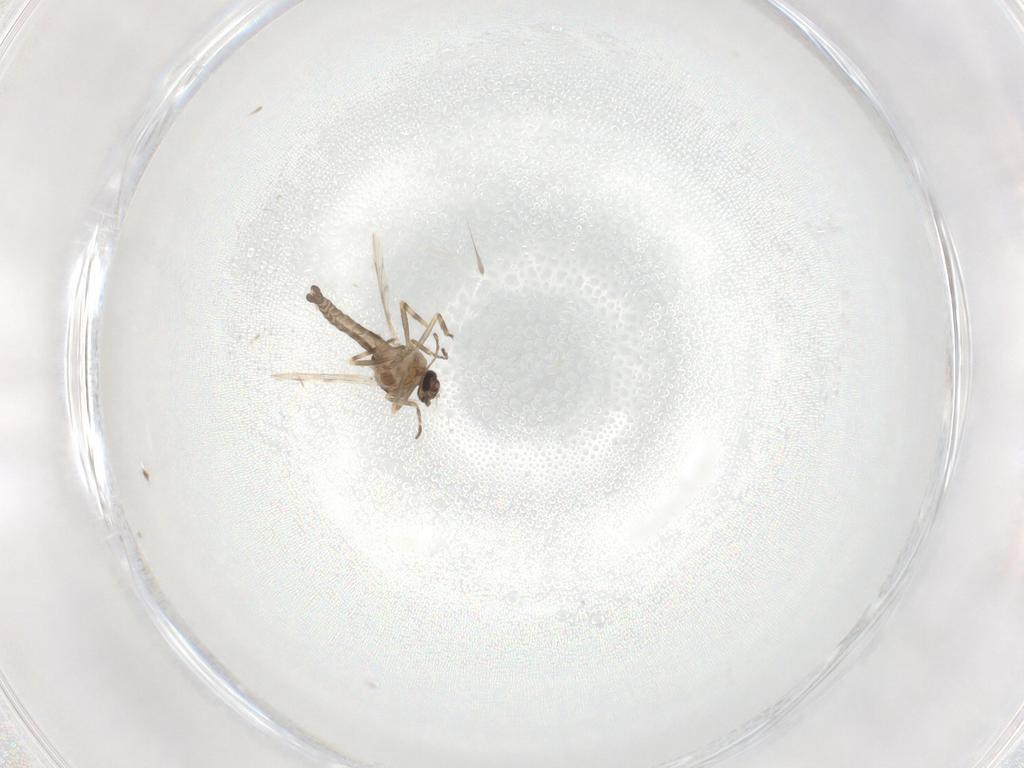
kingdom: Animalia
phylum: Arthropoda
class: Insecta
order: Diptera
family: Ceratopogonidae
